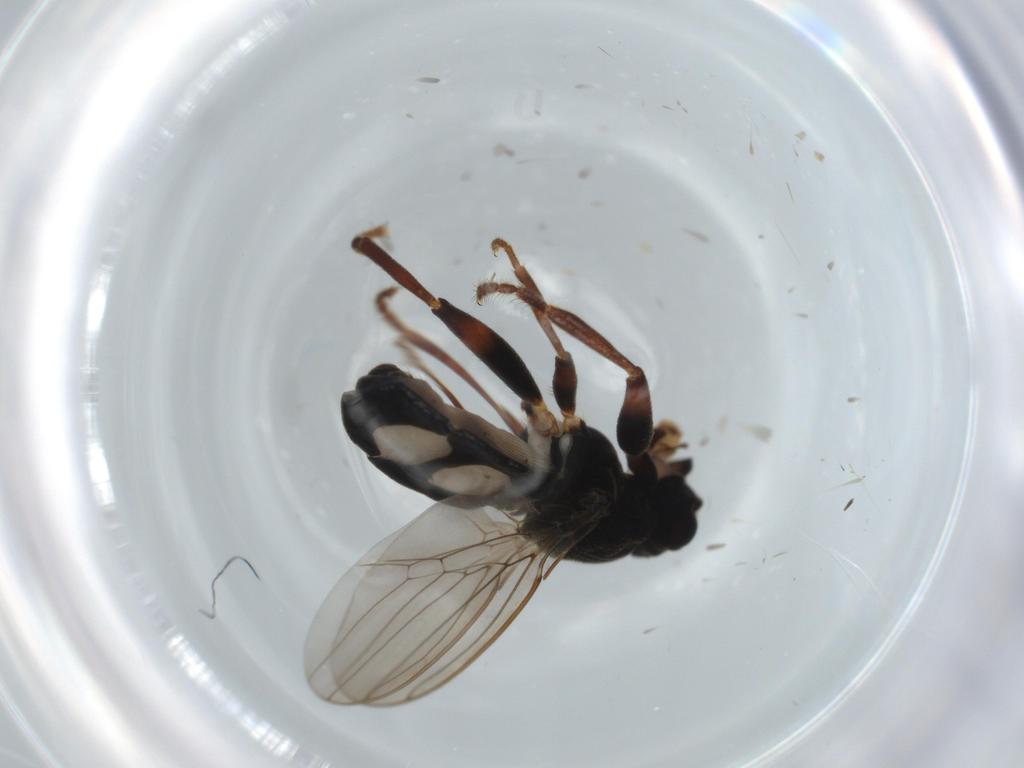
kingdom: Animalia
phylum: Arthropoda
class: Insecta
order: Diptera
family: Sphaeroceridae
